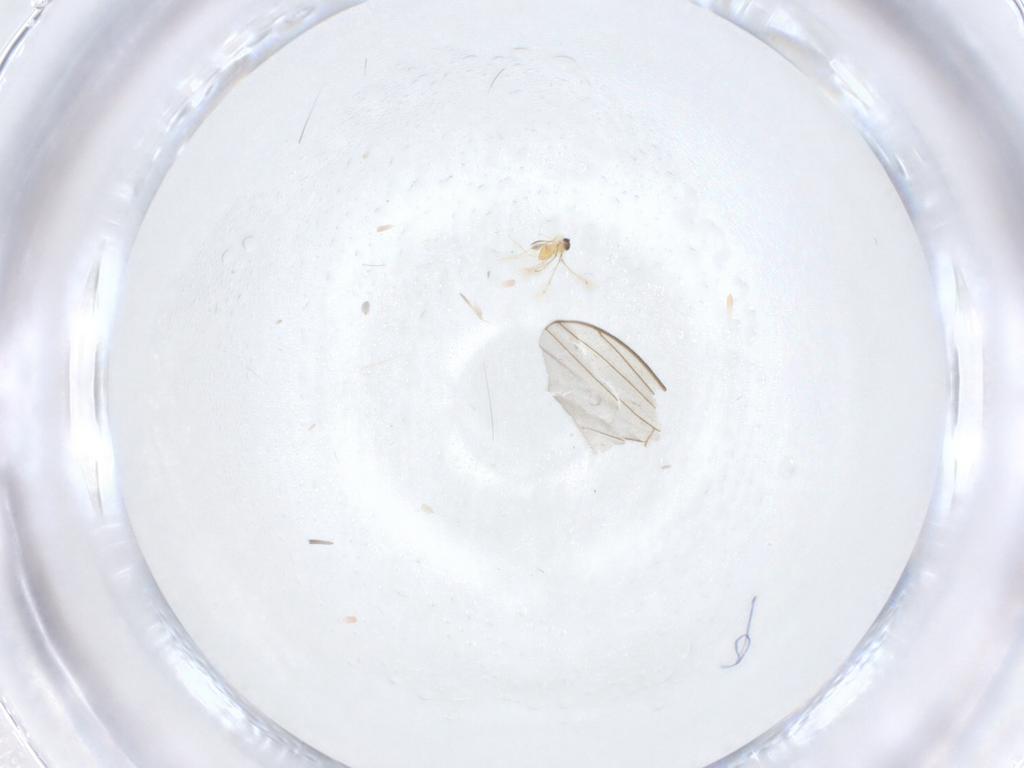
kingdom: Animalia
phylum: Arthropoda
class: Insecta
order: Diptera
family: Dolichopodidae
